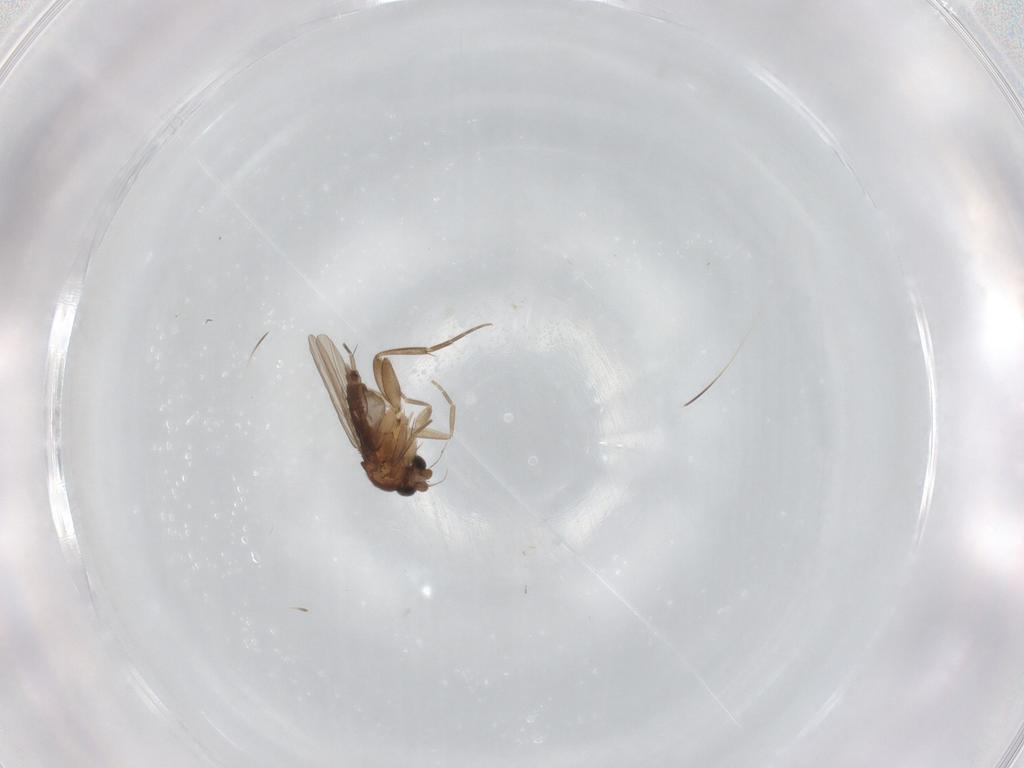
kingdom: Animalia
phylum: Arthropoda
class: Insecta
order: Diptera
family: Phoridae
